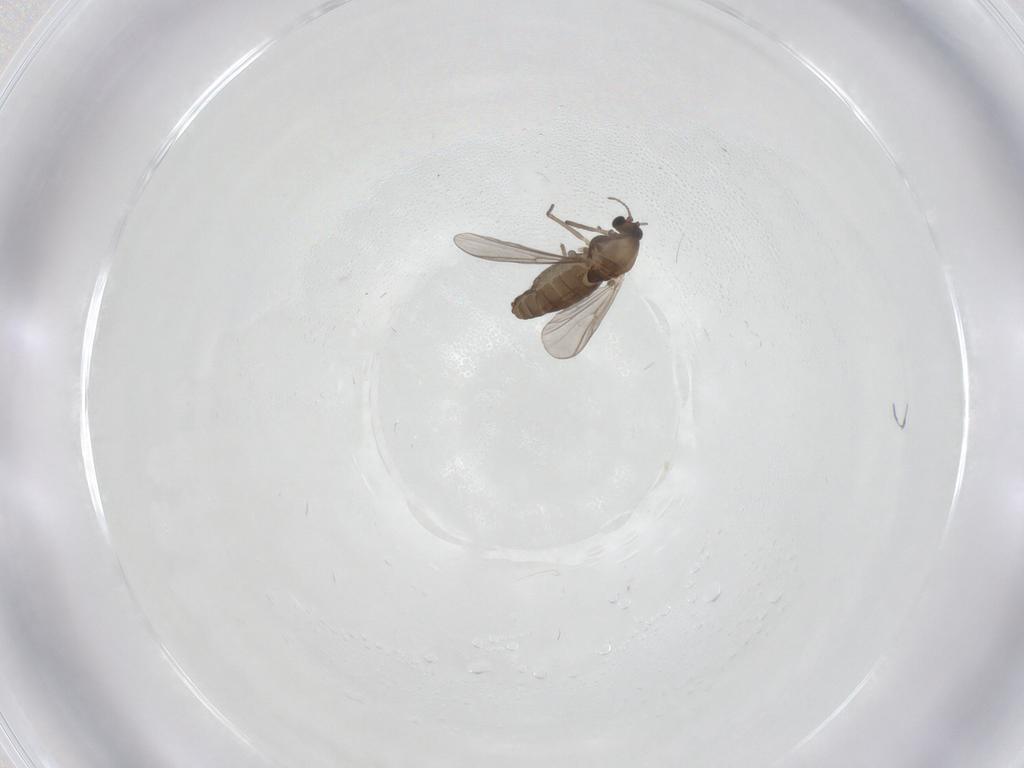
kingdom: Animalia
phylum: Arthropoda
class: Insecta
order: Diptera
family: Chironomidae
